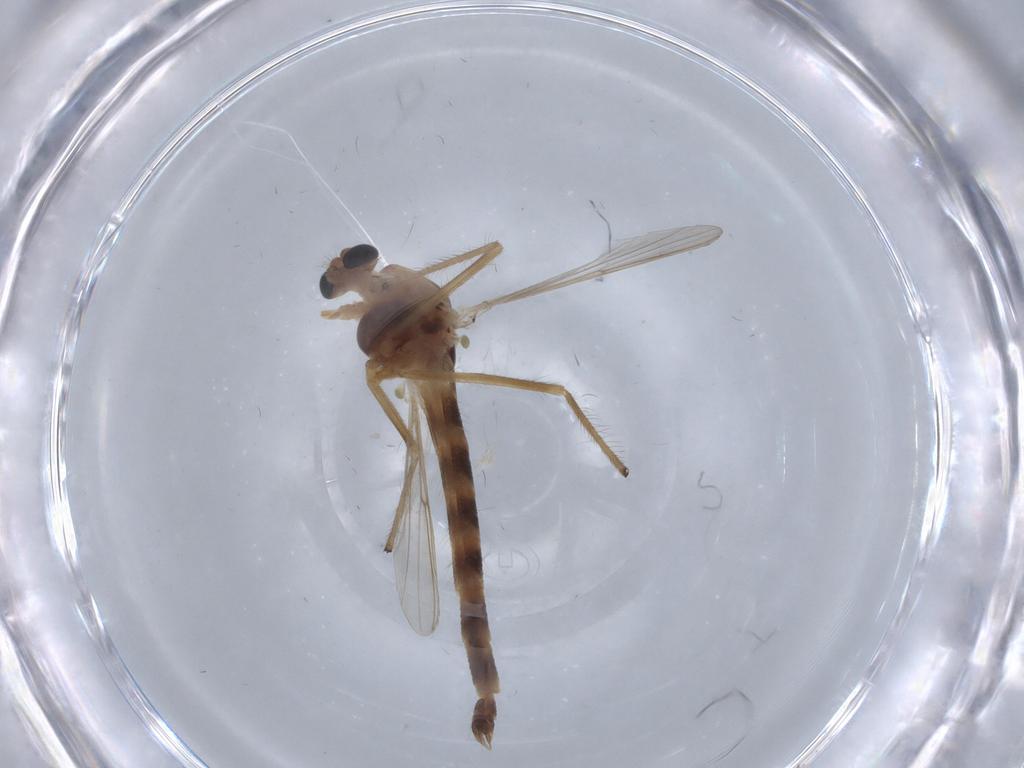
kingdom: Animalia
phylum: Arthropoda
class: Insecta
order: Diptera
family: Dolichopodidae
